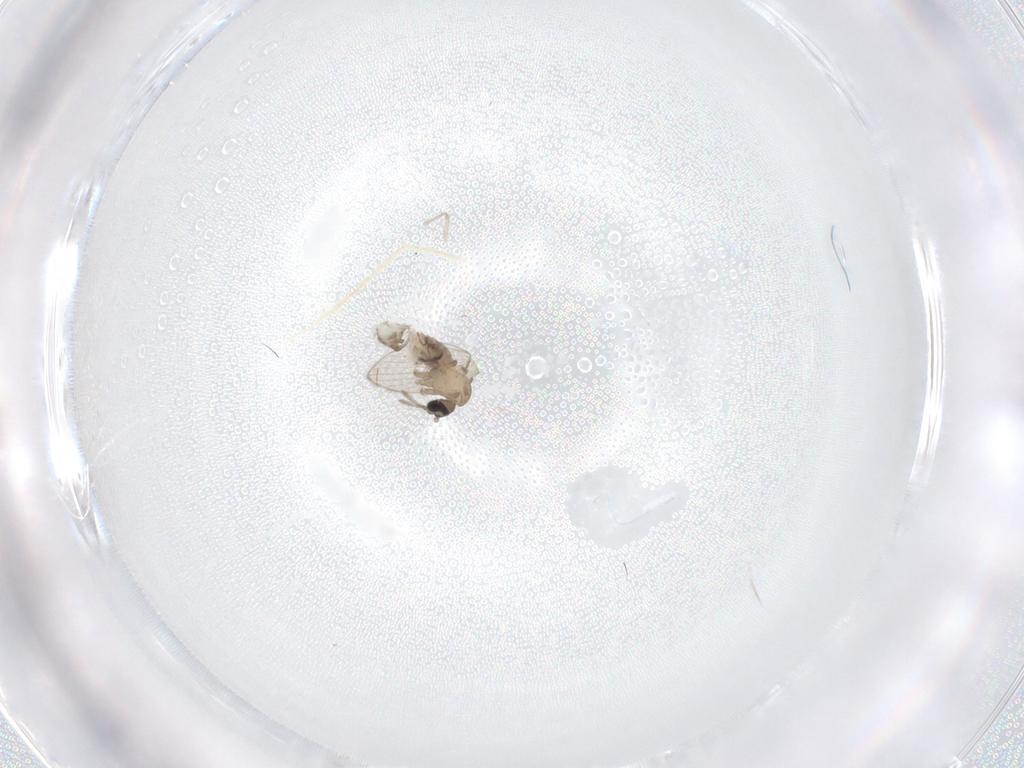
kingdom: Animalia
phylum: Arthropoda
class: Insecta
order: Diptera
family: Psychodidae
